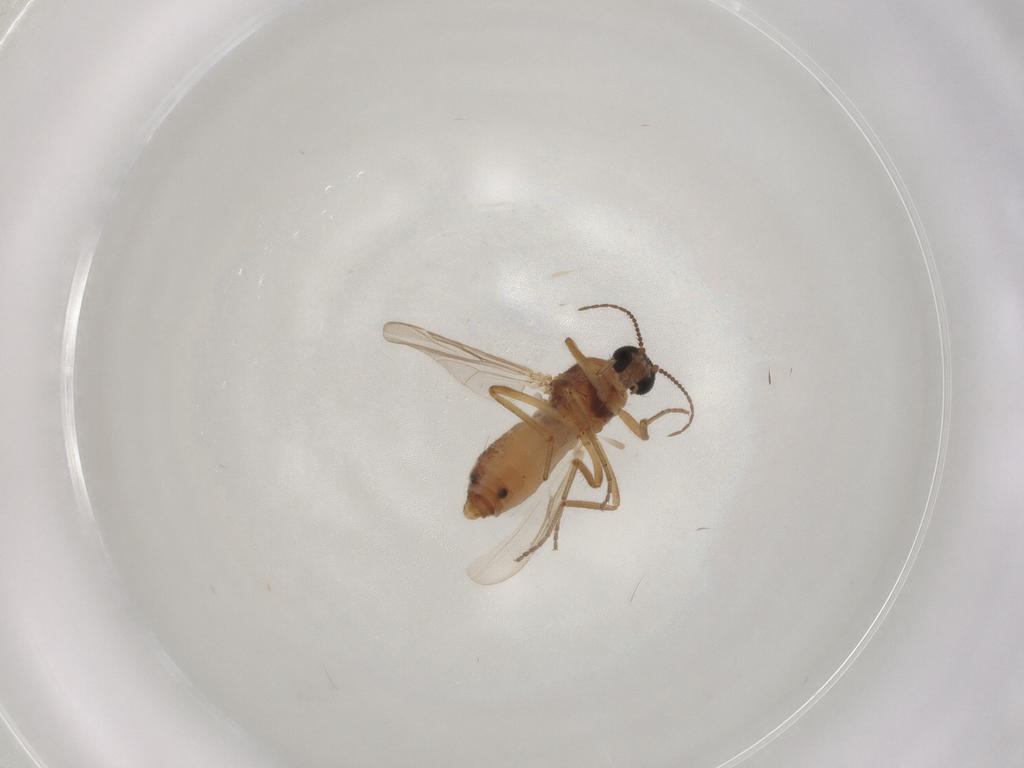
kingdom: Animalia
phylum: Arthropoda
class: Insecta
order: Diptera
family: Ceratopogonidae
